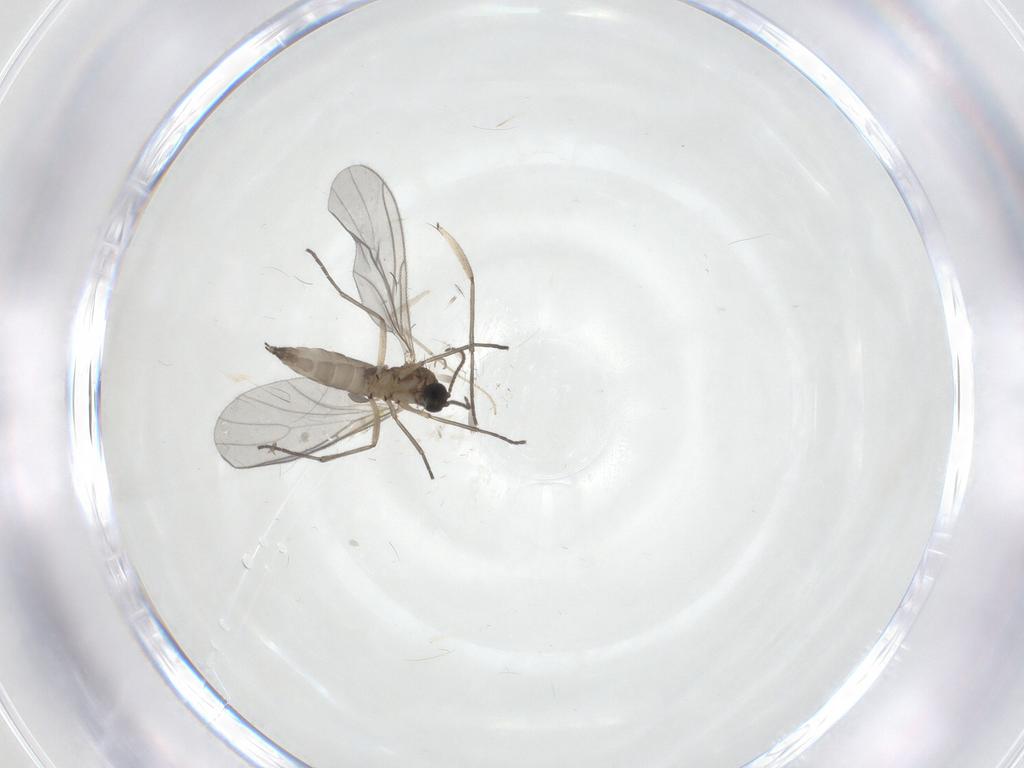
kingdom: Animalia
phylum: Arthropoda
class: Insecta
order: Diptera
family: Sciaridae
